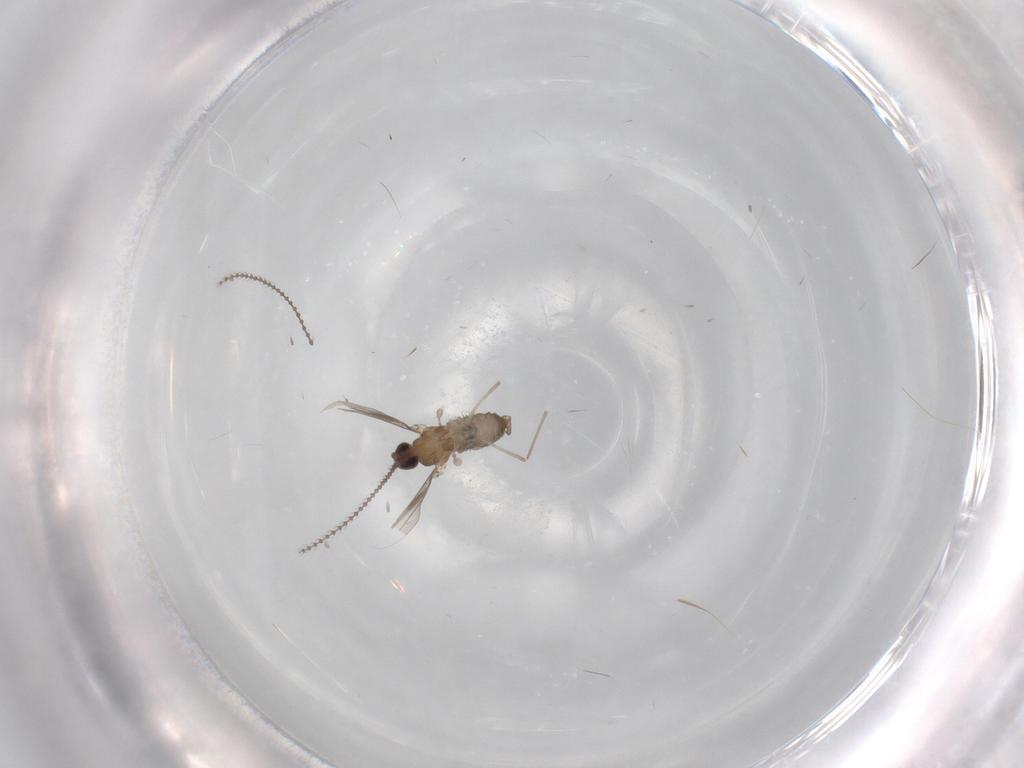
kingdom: Animalia
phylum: Arthropoda
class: Insecta
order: Diptera
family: Cecidomyiidae
